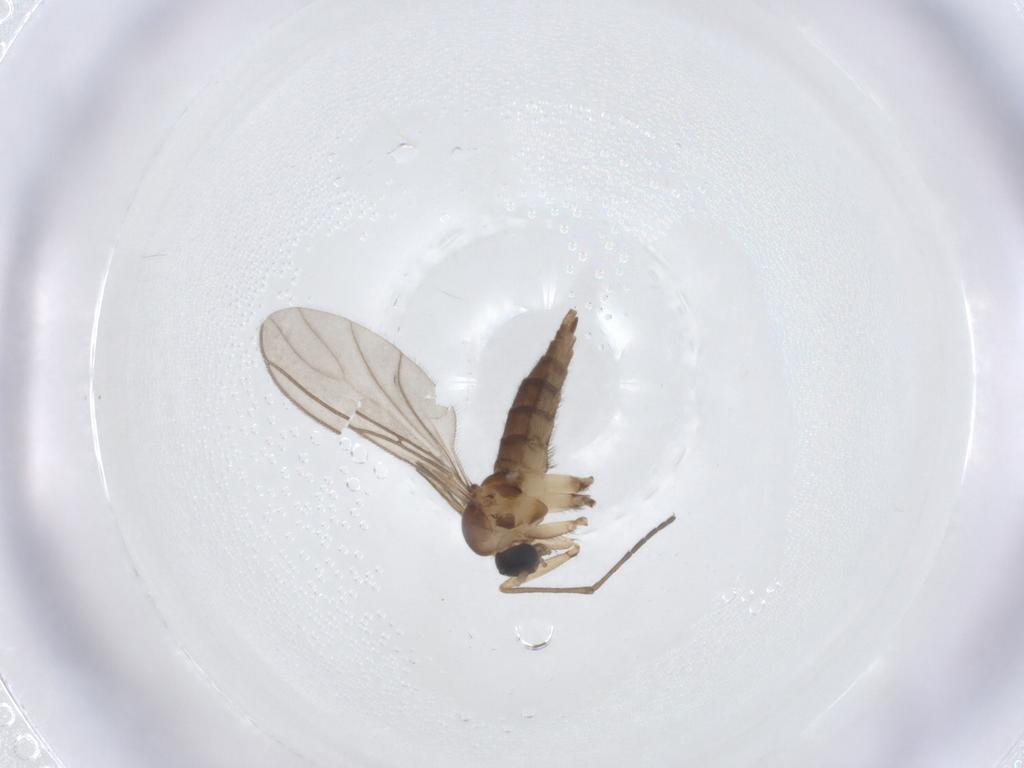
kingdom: Animalia
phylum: Arthropoda
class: Insecta
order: Diptera
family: Sciaridae
